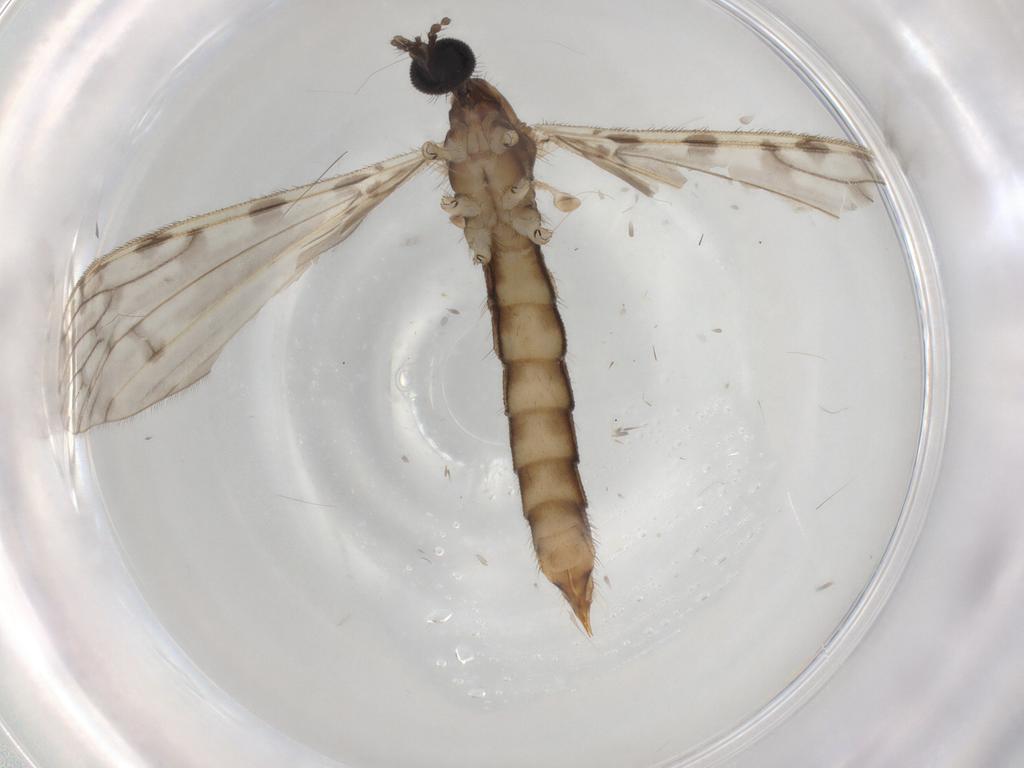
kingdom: Animalia
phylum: Arthropoda
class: Insecta
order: Diptera
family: Limoniidae
